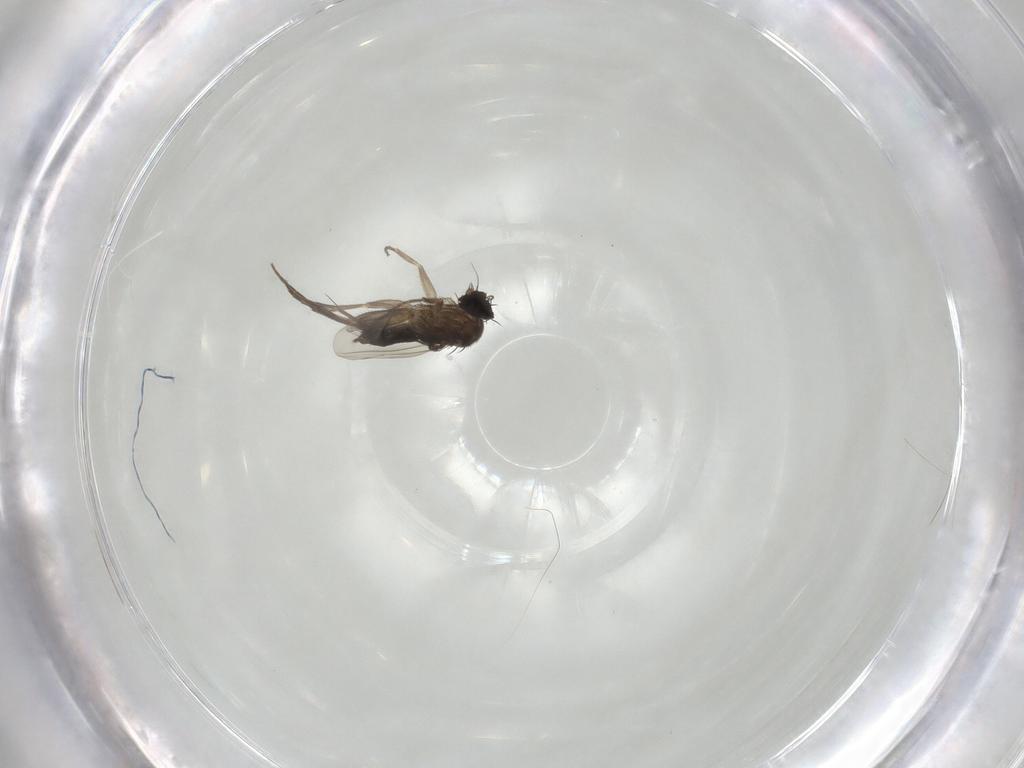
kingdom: Animalia
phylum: Arthropoda
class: Insecta
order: Diptera
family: Phoridae
